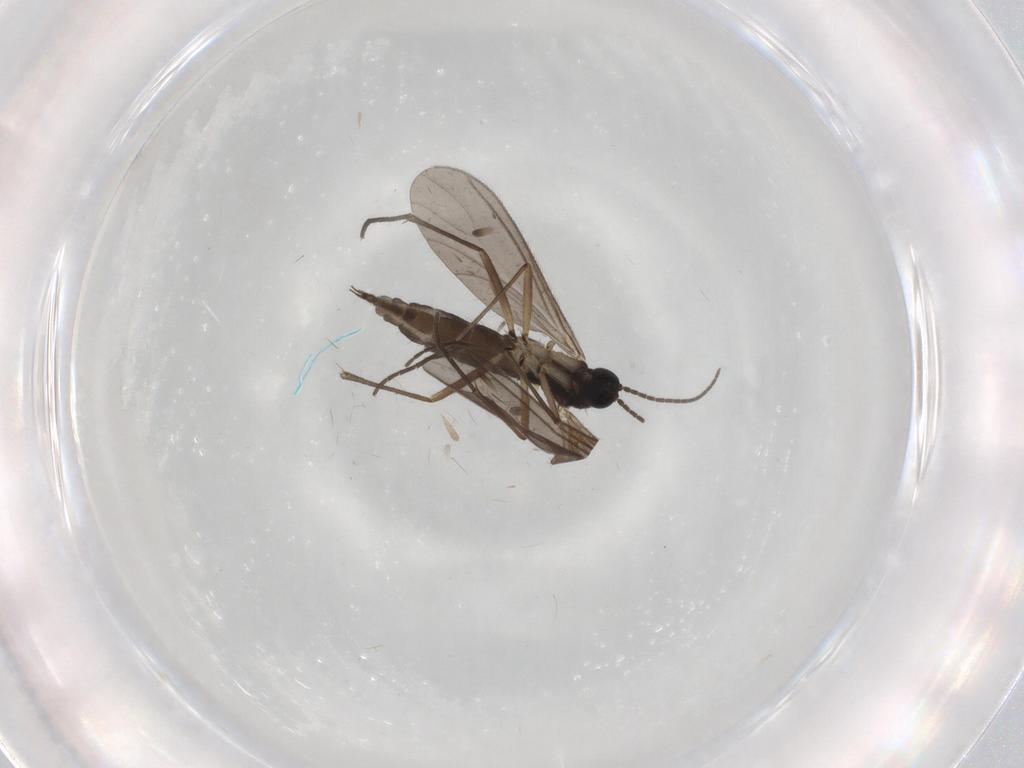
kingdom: Animalia
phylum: Arthropoda
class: Insecta
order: Diptera
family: Sciaridae
